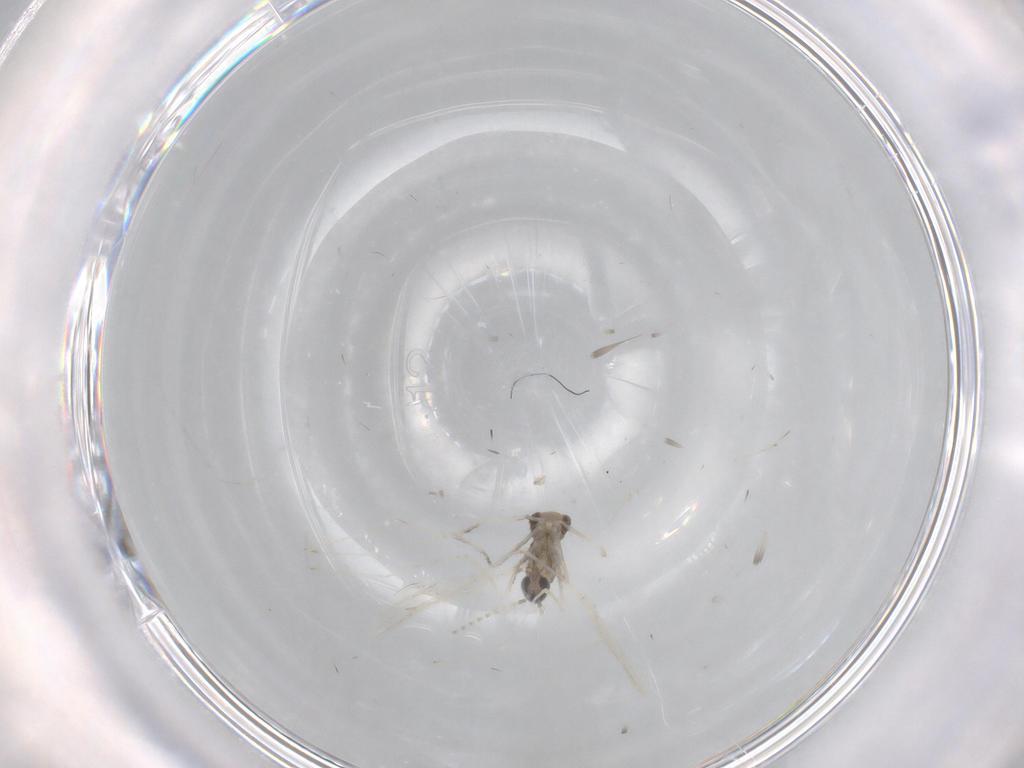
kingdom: Animalia
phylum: Arthropoda
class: Insecta
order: Diptera
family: Cecidomyiidae
